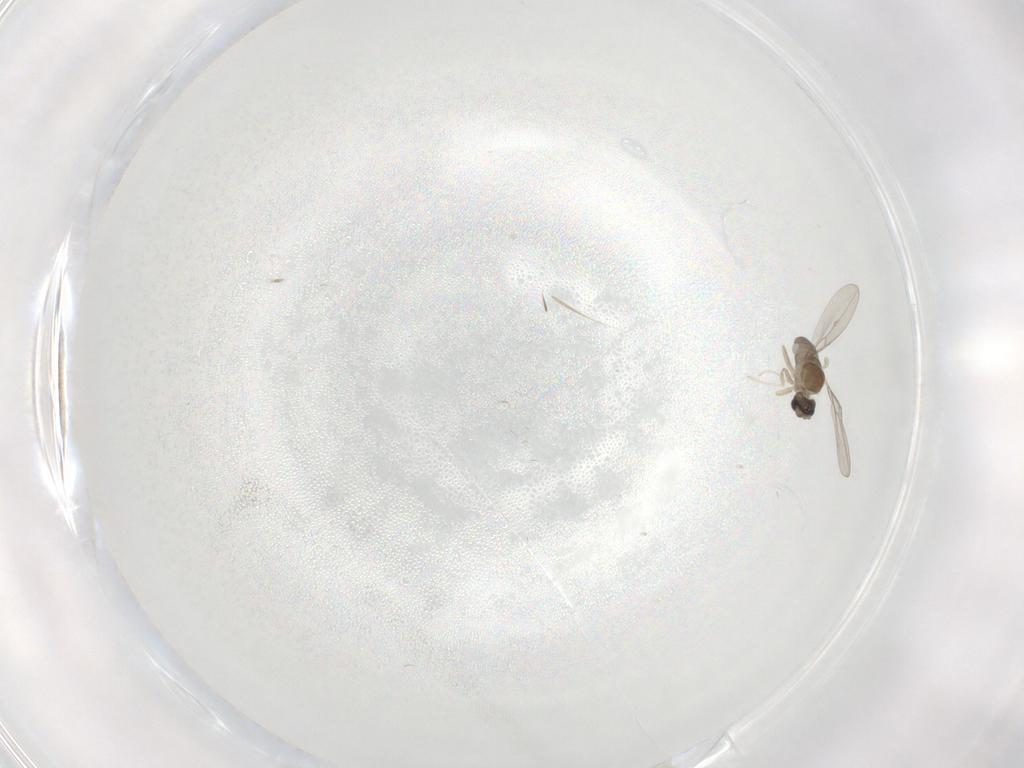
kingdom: Animalia
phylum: Arthropoda
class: Insecta
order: Diptera
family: Cecidomyiidae
